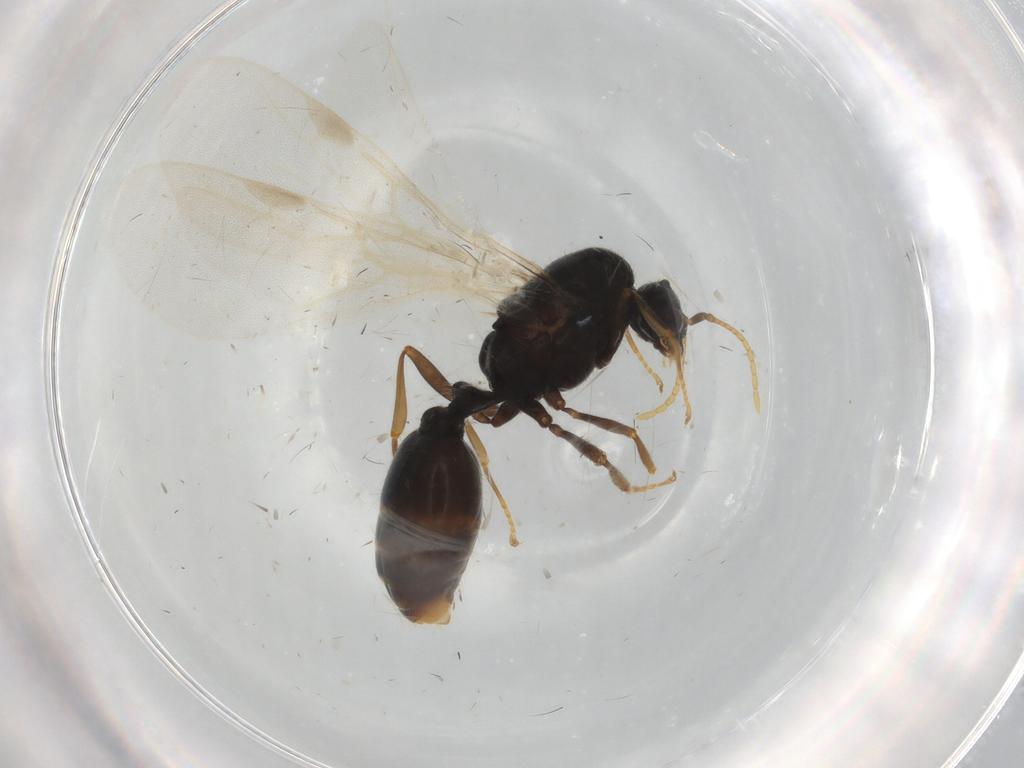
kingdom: Animalia
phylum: Arthropoda
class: Insecta
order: Hymenoptera
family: Formicidae
